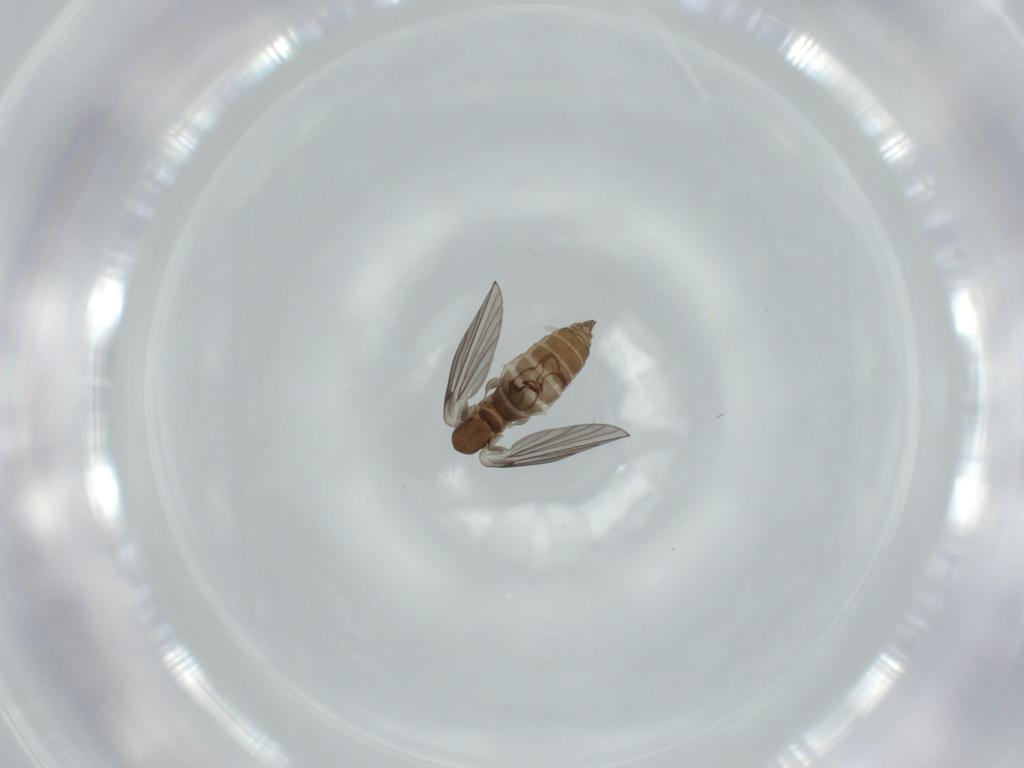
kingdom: Animalia
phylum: Arthropoda
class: Insecta
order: Diptera
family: Psychodidae
